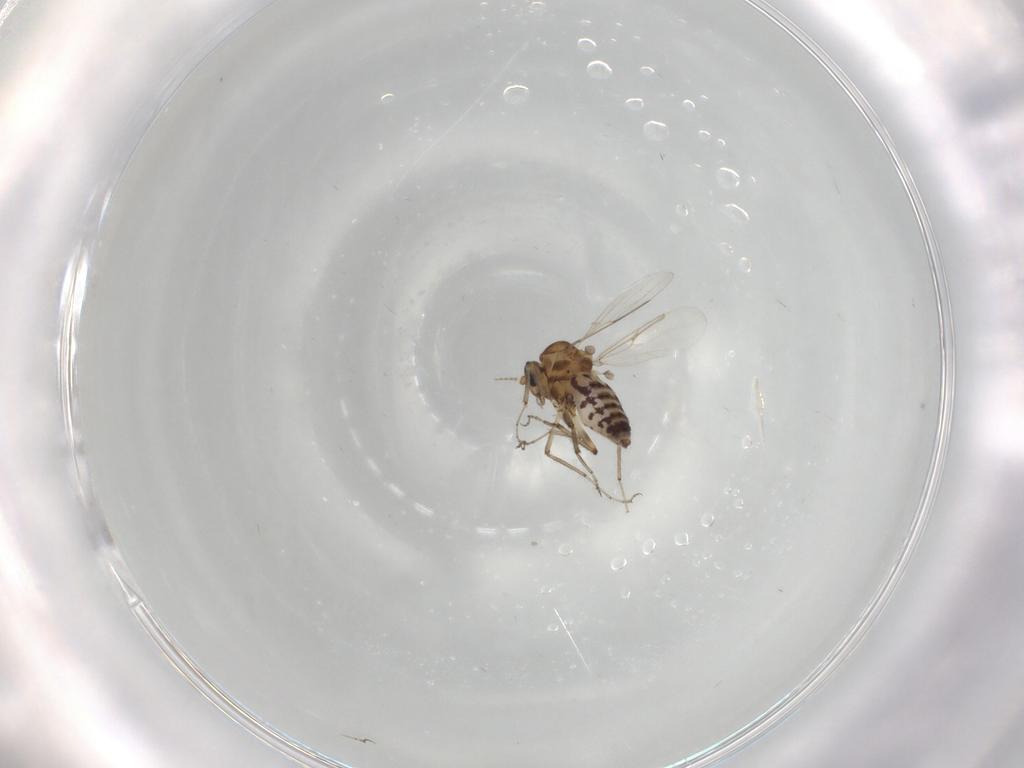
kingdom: Animalia
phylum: Arthropoda
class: Insecta
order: Diptera
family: Ceratopogonidae
